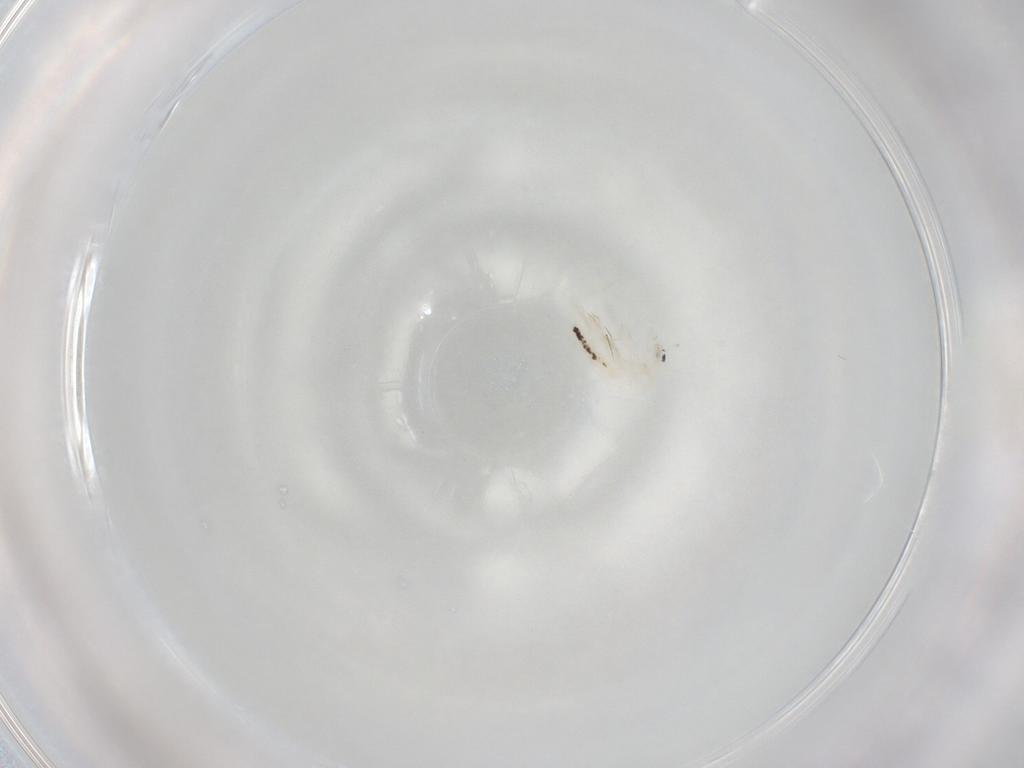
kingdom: Animalia
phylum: Arthropoda
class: Collembola
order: Entomobryomorpha
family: Entomobryidae
